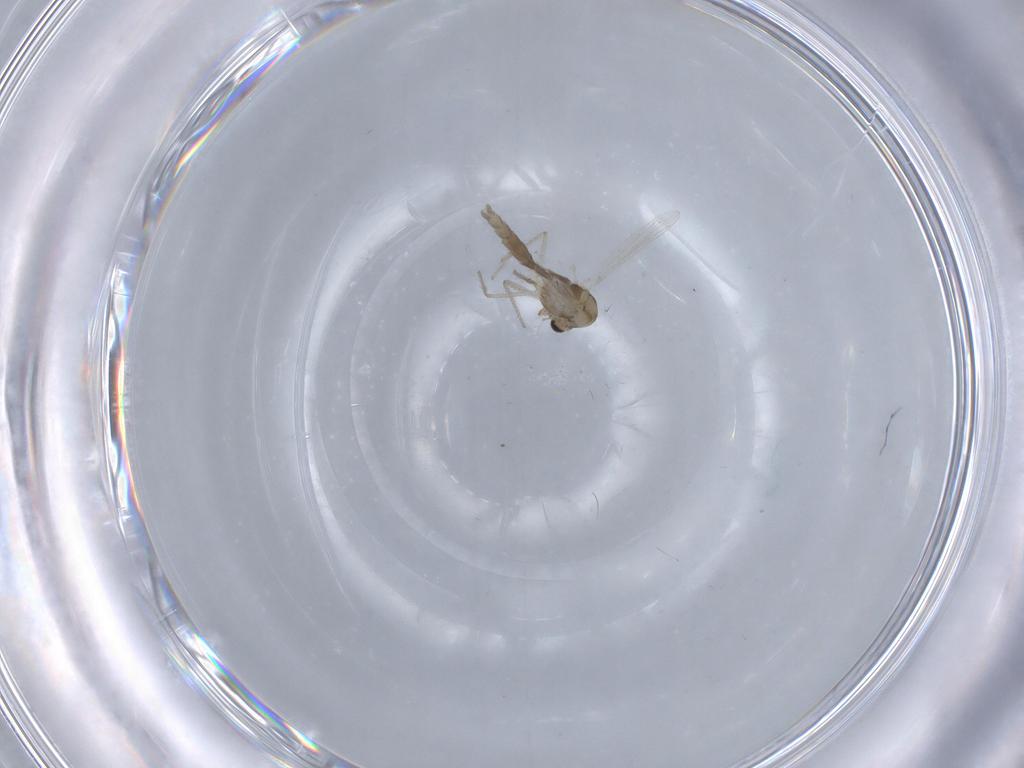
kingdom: Animalia
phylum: Arthropoda
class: Insecta
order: Diptera
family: Chironomidae
